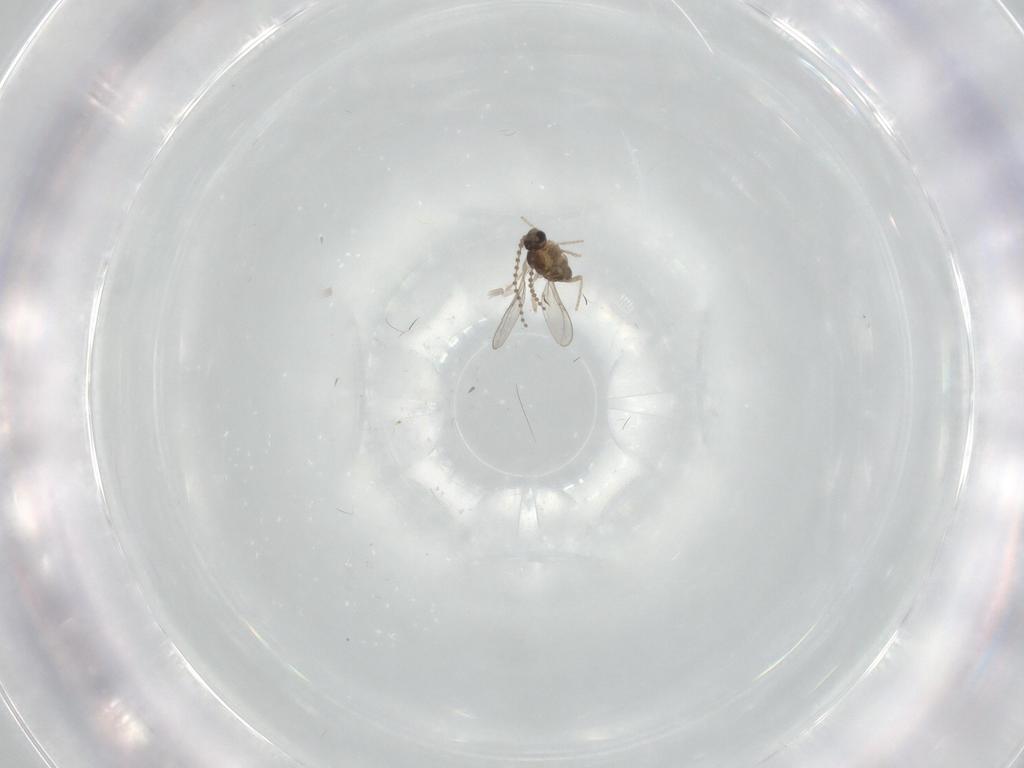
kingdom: Animalia
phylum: Arthropoda
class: Insecta
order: Diptera
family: Cecidomyiidae
